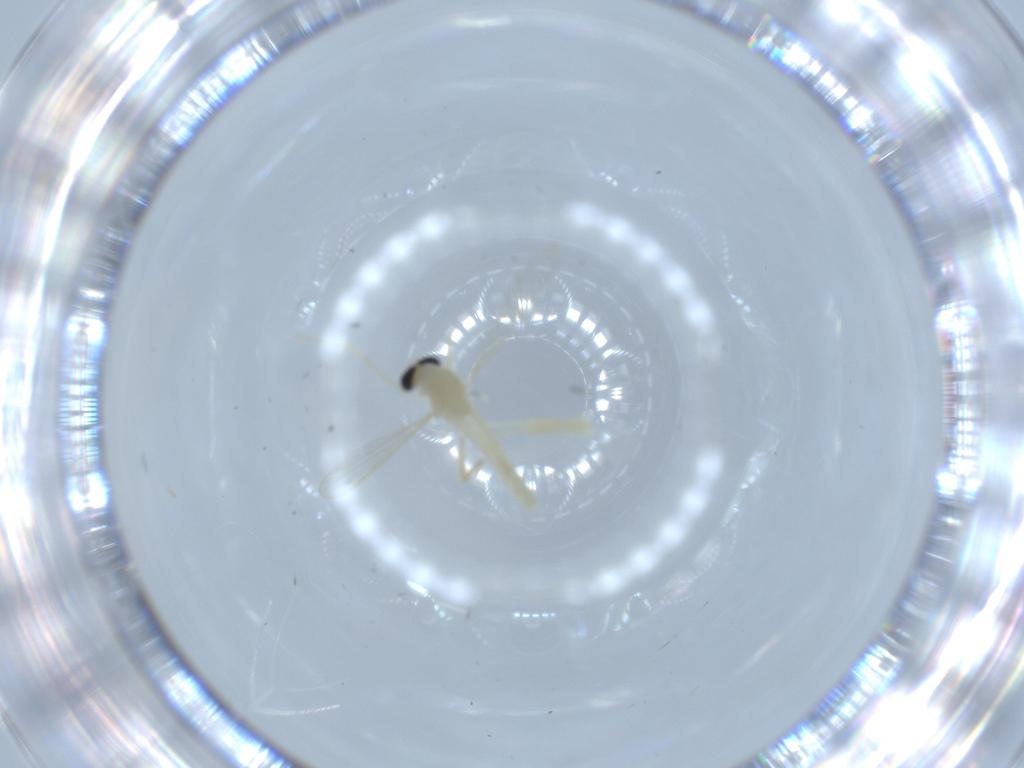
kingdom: Animalia
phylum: Arthropoda
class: Insecta
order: Diptera
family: Chironomidae
